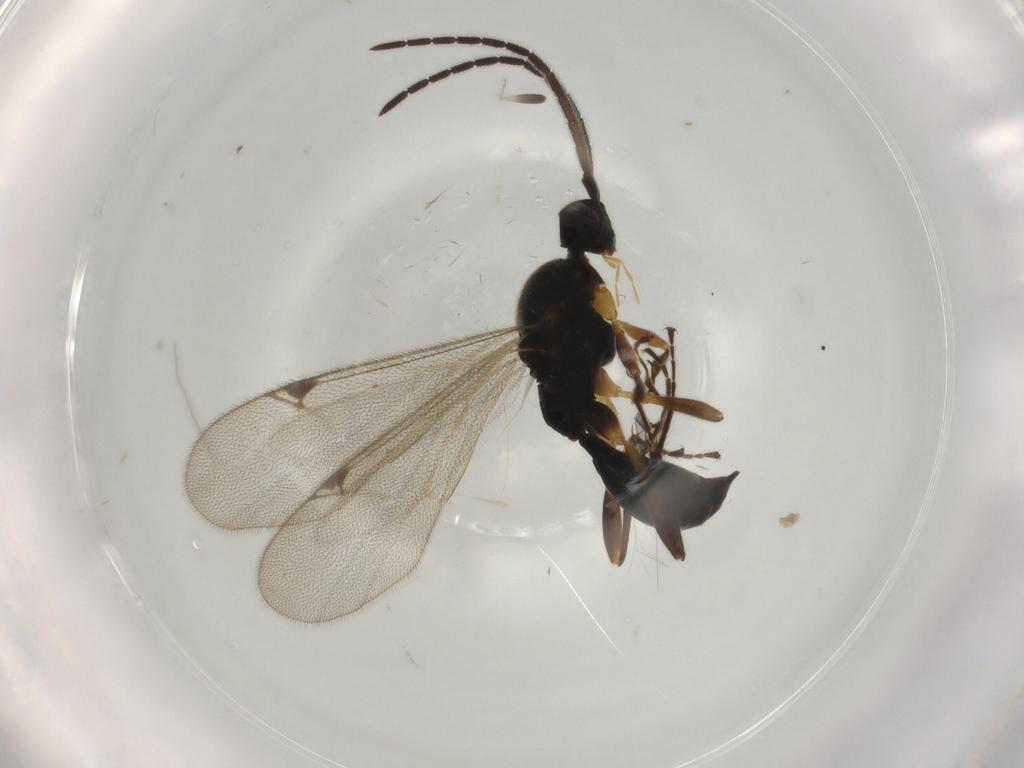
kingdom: Animalia
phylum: Arthropoda
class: Insecta
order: Hymenoptera
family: Proctotrupidae
